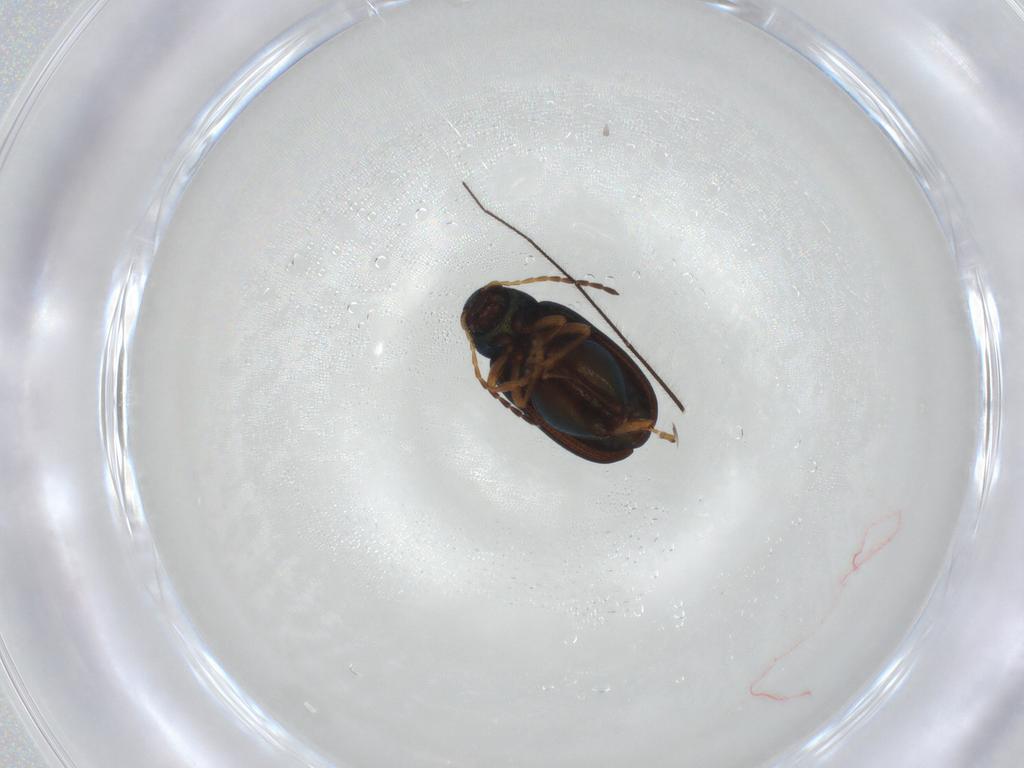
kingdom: Animalia
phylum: Arthropoda
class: Insecta
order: Coleoptera
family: Chrysomelidae
